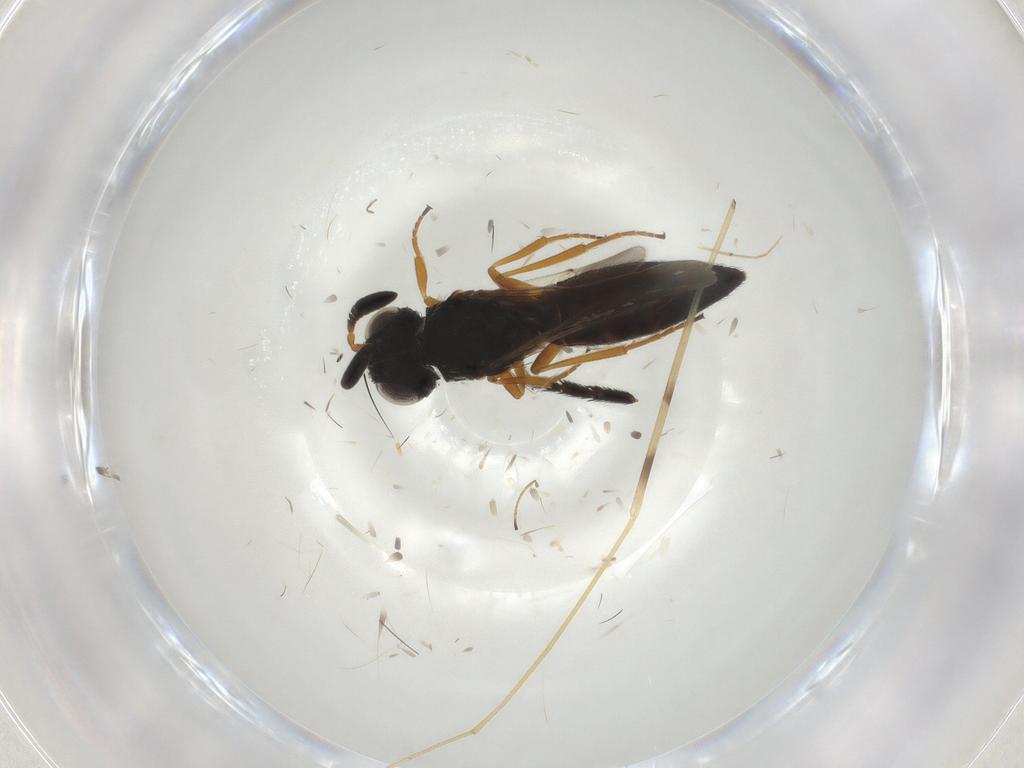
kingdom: Animalia
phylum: Arthropoda
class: Insecta
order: Hymenoptera
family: Scelionidae
